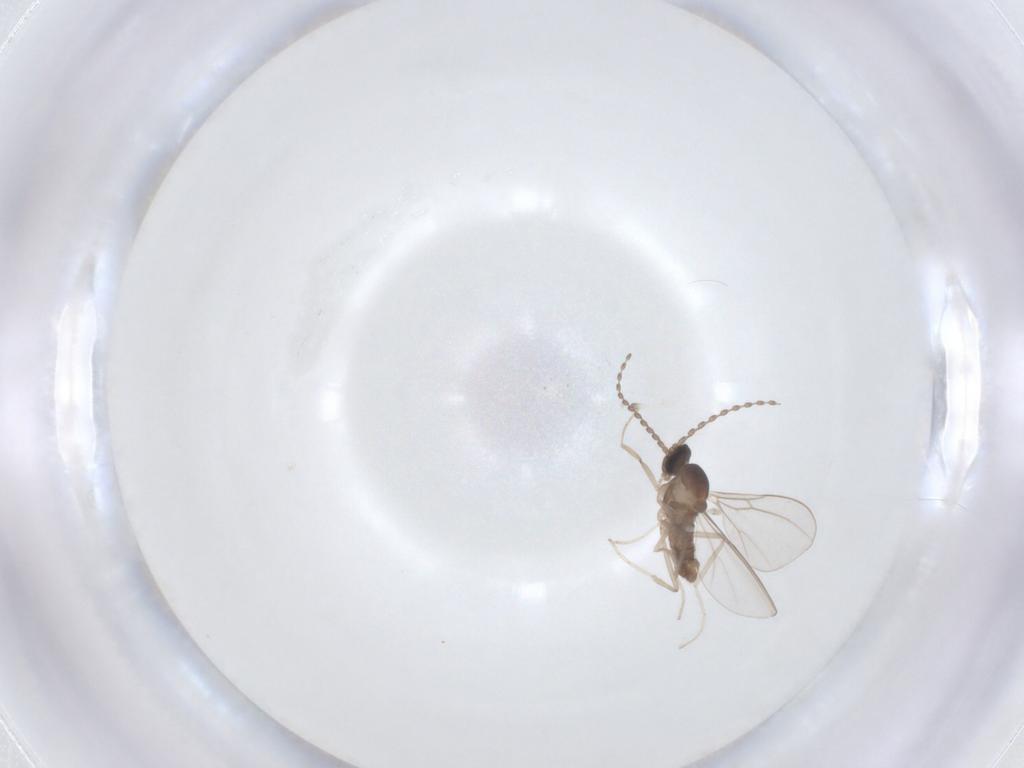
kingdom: Animalia
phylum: Arthropoda
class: Insecta
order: Diptera
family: Cecidomyiidae
